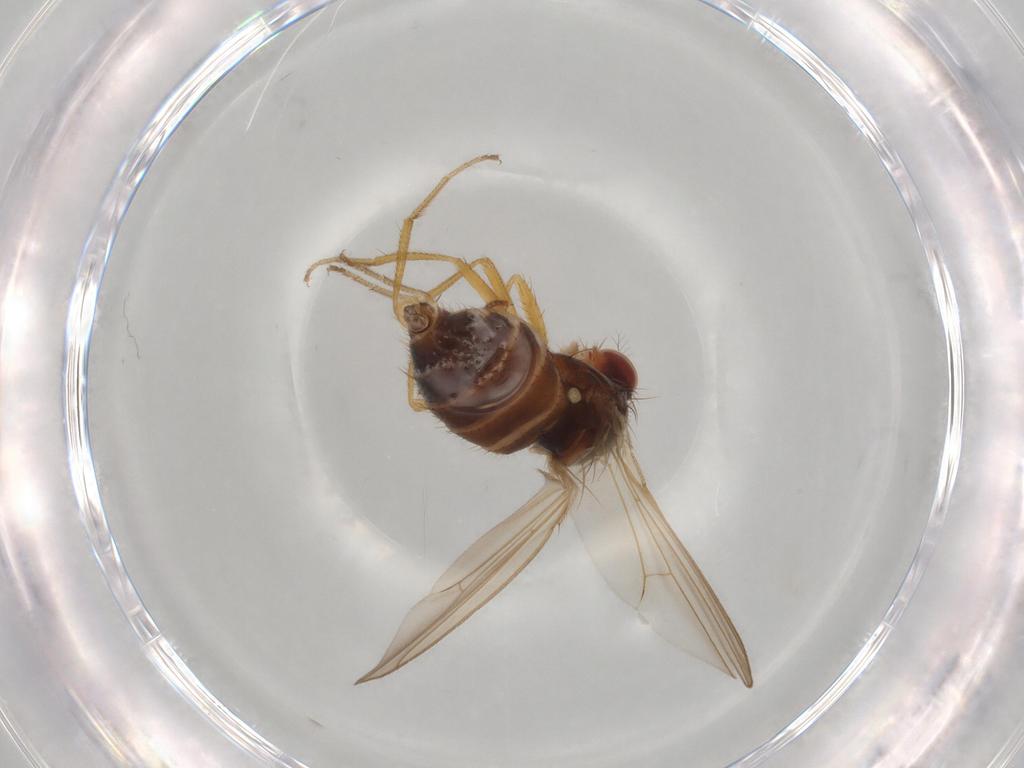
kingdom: Animalia
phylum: Arthropoda
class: Insecta
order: Diptera
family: Drosophilidae
